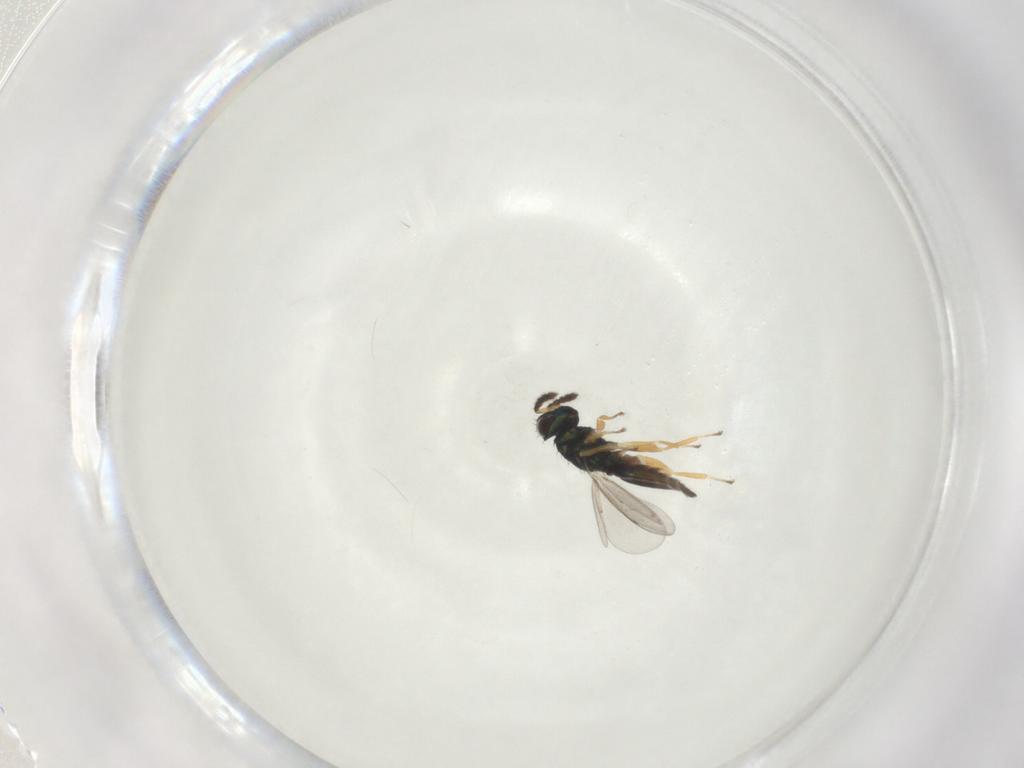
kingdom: Animalia
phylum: Arthropoda
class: Insecta
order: Hymenoptera
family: Eulophidae
